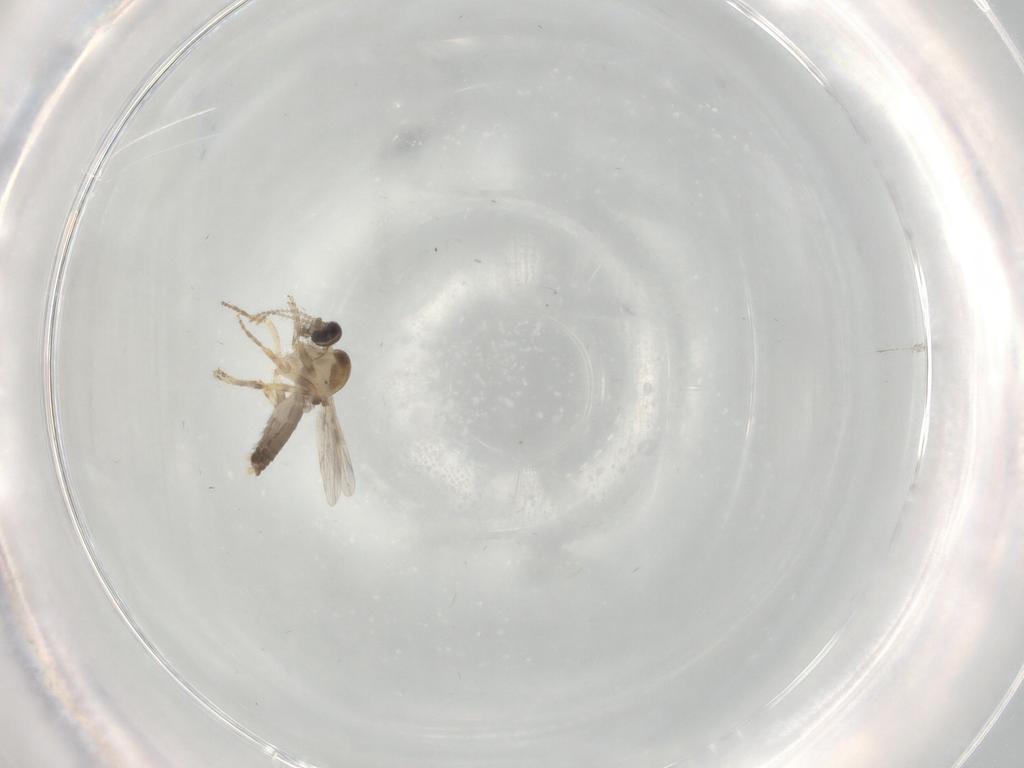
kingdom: Animalia
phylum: Arthropoda
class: Insecta
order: Diptera
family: Ceratopogonidae
